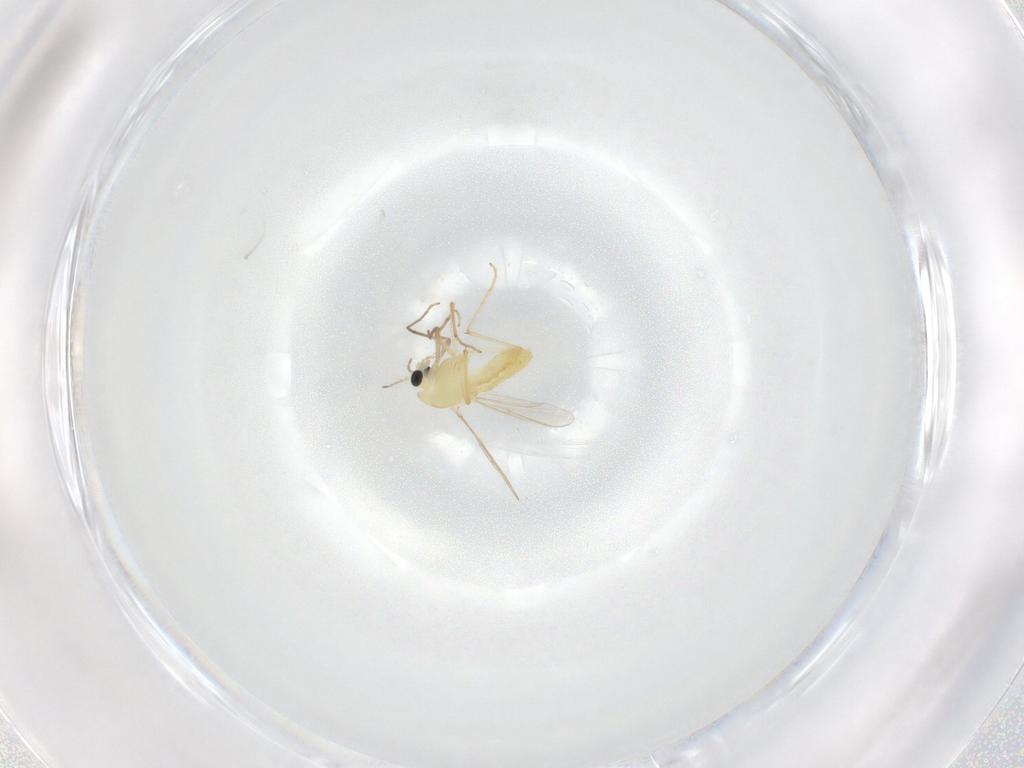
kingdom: Animalia
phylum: Arthropoda
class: Insecta
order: Diptera
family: Chironomidae
